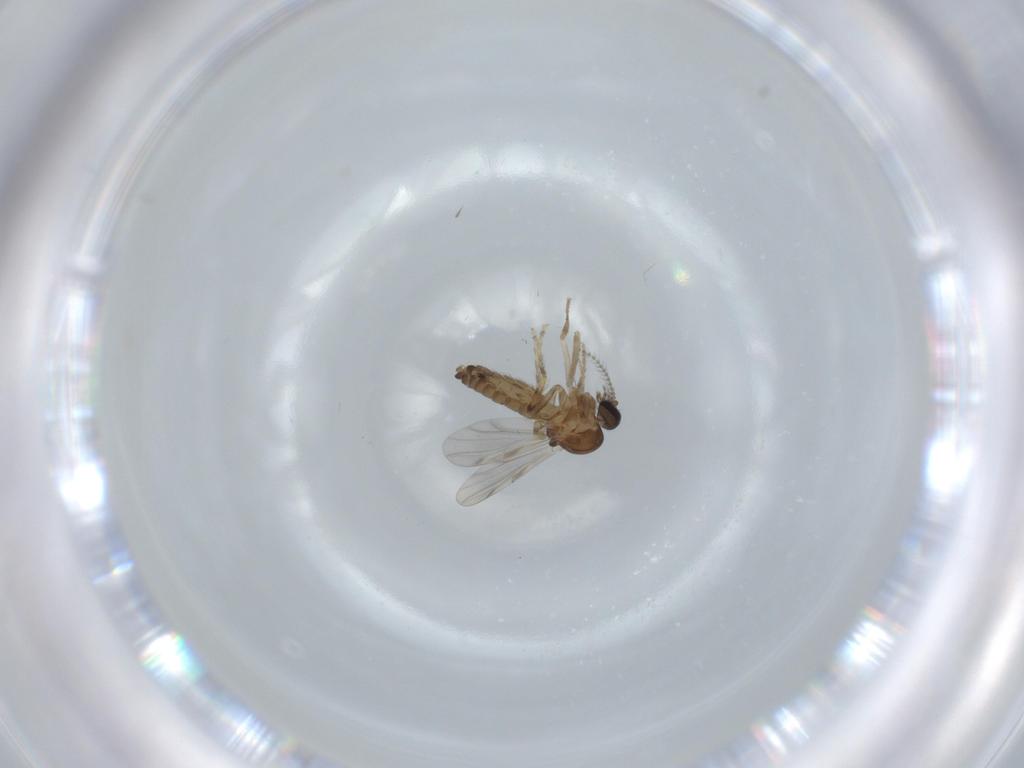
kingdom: Animalia
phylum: Arthropoda
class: Insecta
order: Diptera
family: Ceratopogonidae
